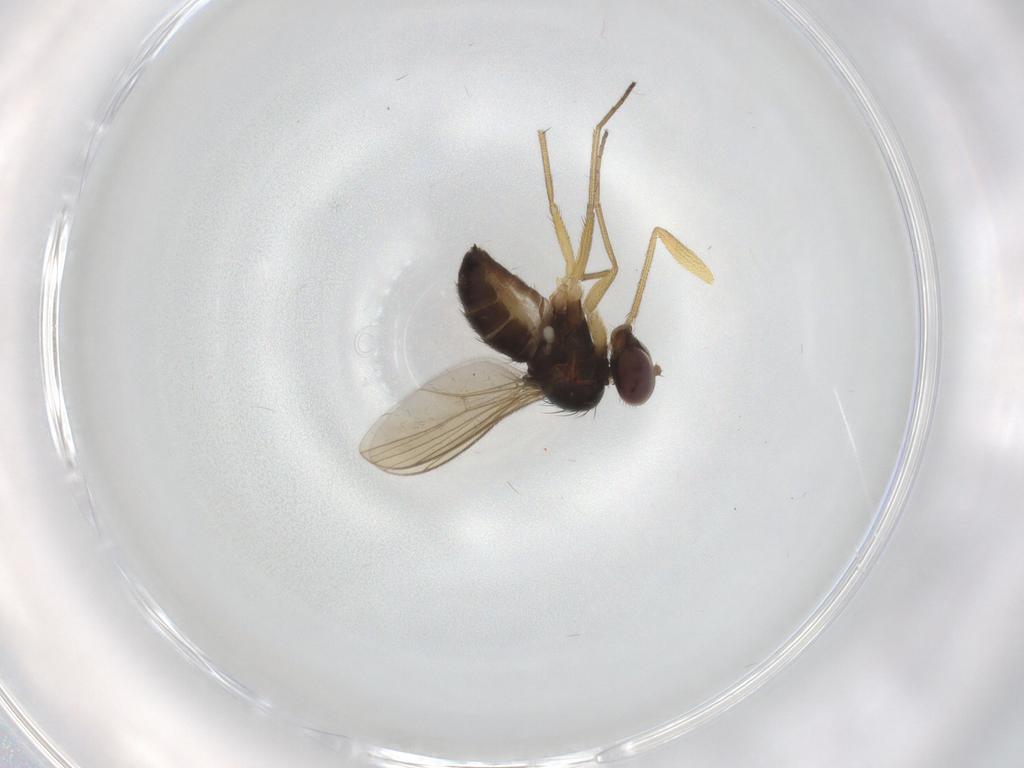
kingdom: Animalia
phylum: Arthropoda
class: Insecta
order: Diptera
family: Dolichopodidae
